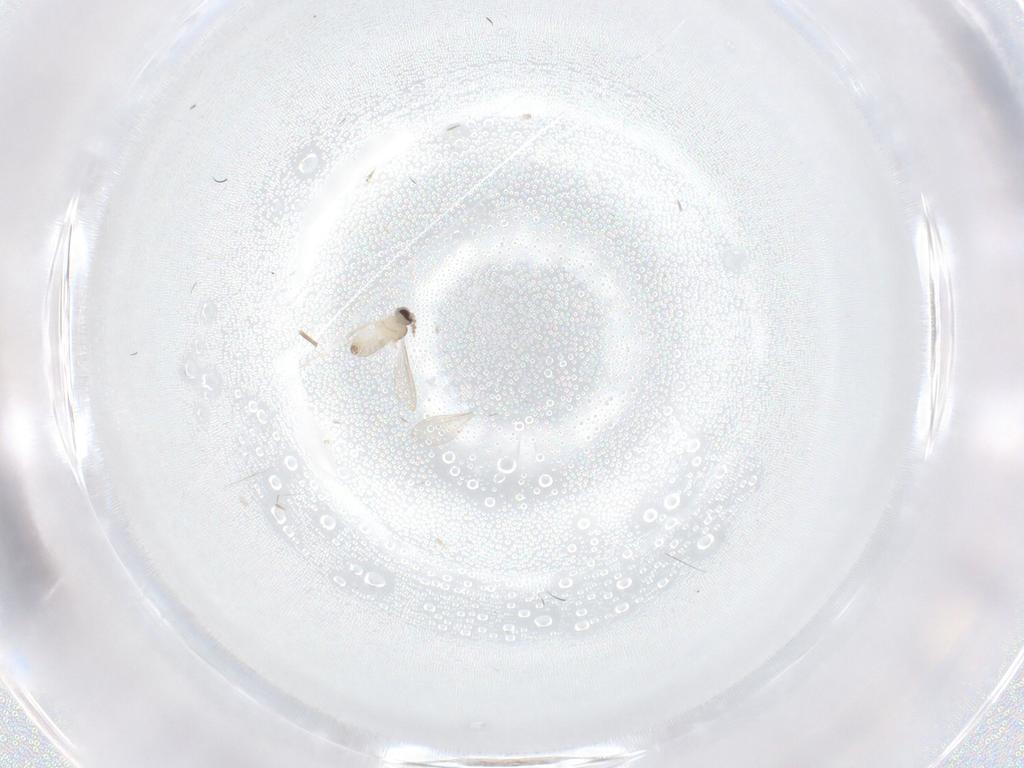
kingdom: Animalia
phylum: Arthropoda
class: Insecta
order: Diptera
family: Cecidomyiidae
